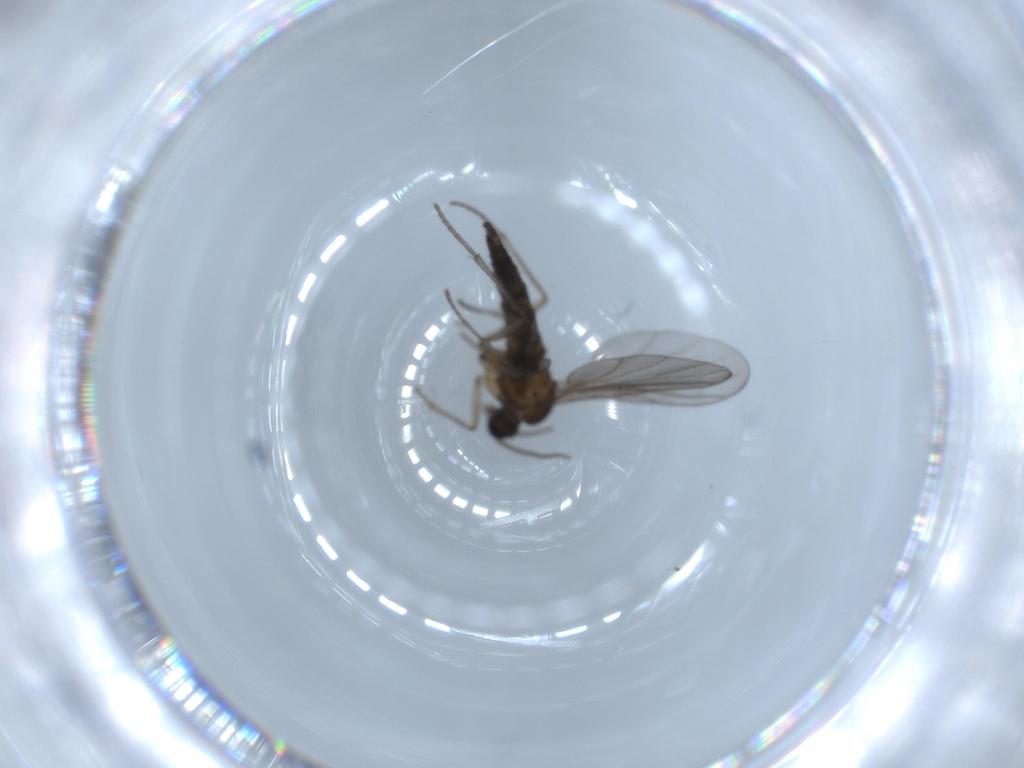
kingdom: Animalia
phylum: Arthropoda
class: Insecta
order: Diptera
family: Sciaridae
